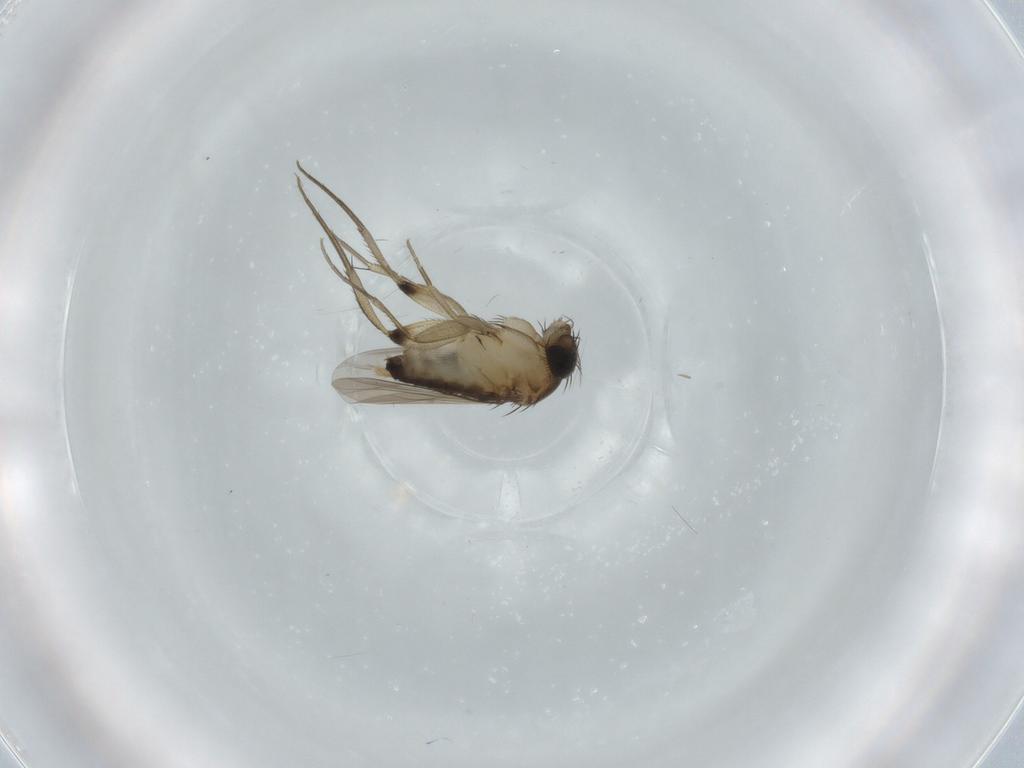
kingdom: Animalia
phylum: Arthropoda
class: Insecta
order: Diptera
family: Phoridae
